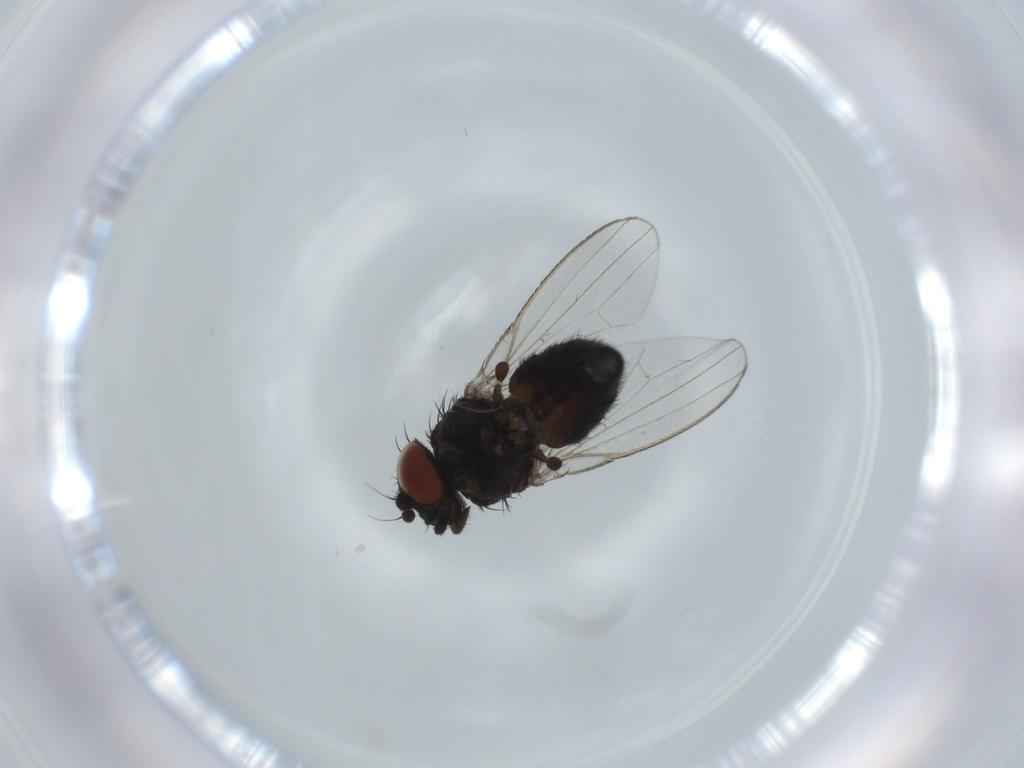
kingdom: Animalia
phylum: Arthropoda
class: Insecta
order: Diptera
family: Milichiidae
